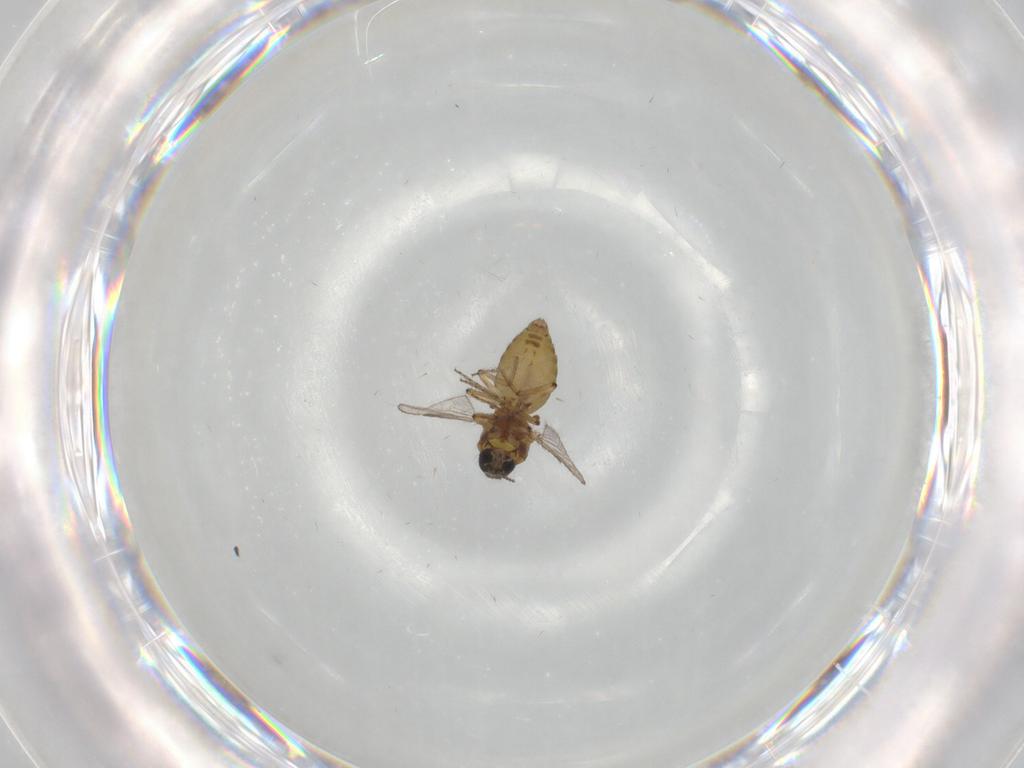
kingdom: Animalia
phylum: Arthropoda
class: Insecta
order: Diptera
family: Ceratopogonidae
